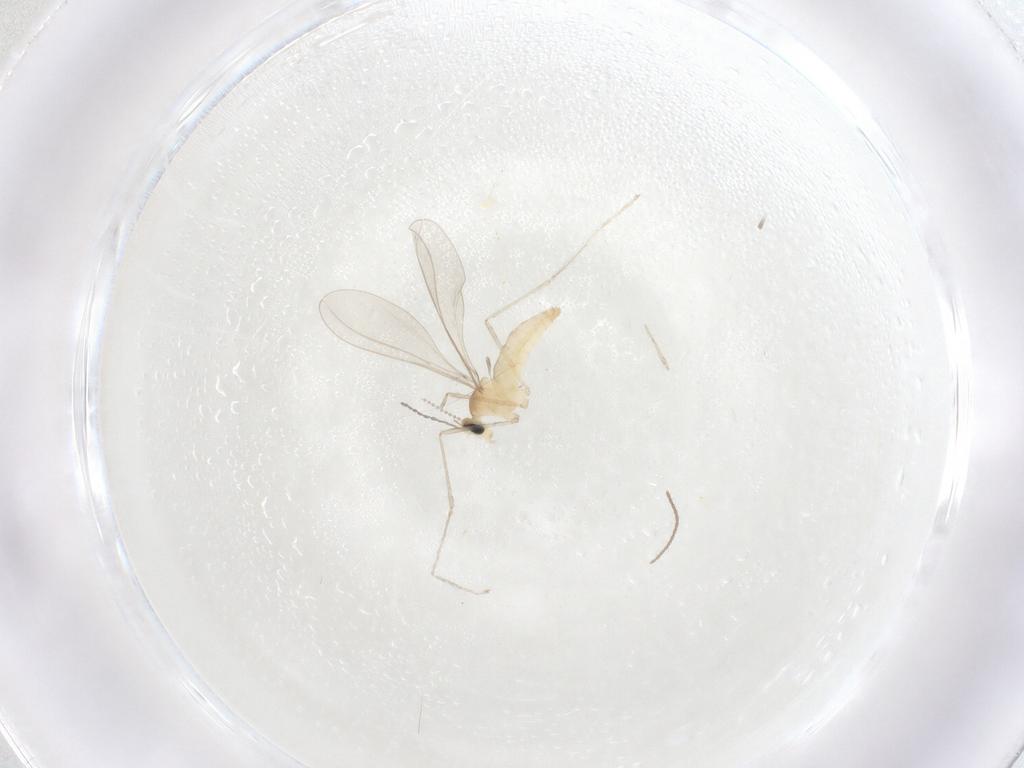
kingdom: Animalia
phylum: Arthropoda
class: Insecta
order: Diptera
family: Cecidomyiidae
